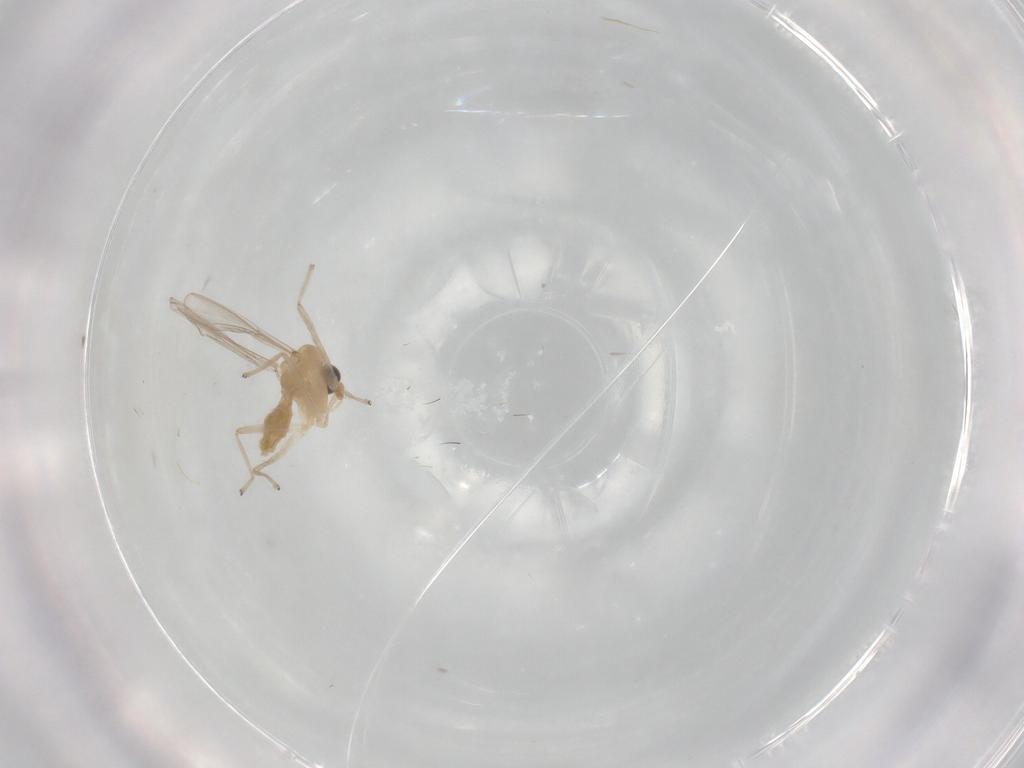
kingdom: Animalia
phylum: Arthropoda
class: Insecta
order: Diptera
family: Chironomidae
